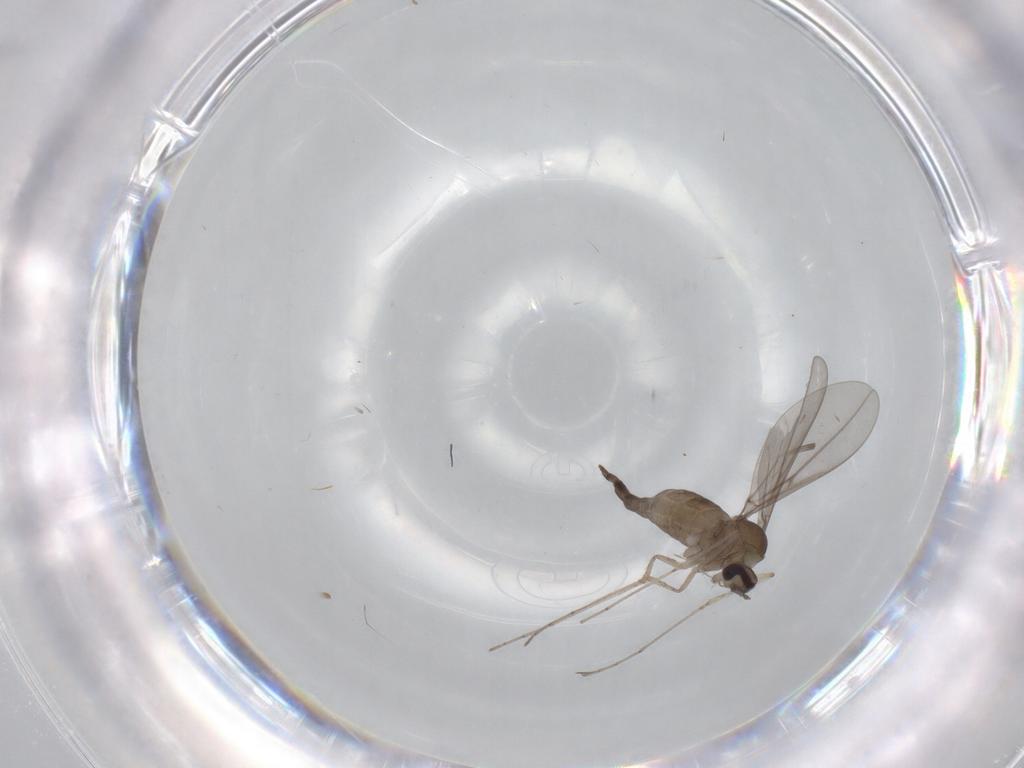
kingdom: Animalia
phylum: Arthropoda
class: Insecta
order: Diptera
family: Cecidomyiidae
